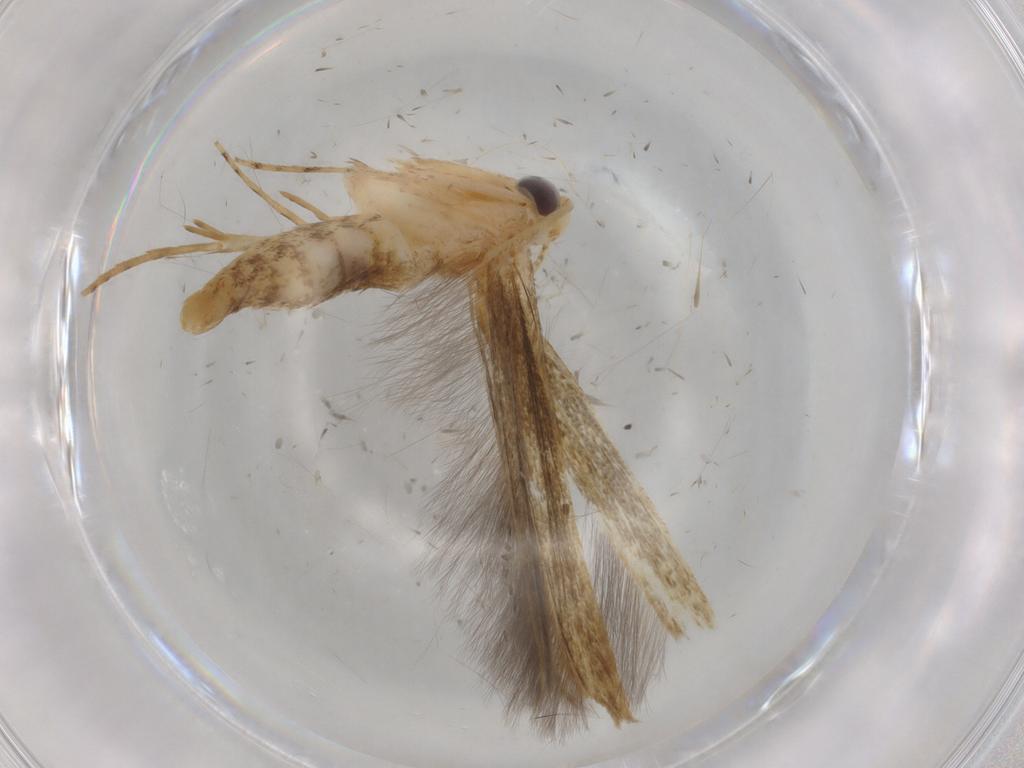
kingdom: Animalia
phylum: Arthropoda
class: Insecta
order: Lepidoptera
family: Batrachedridae
